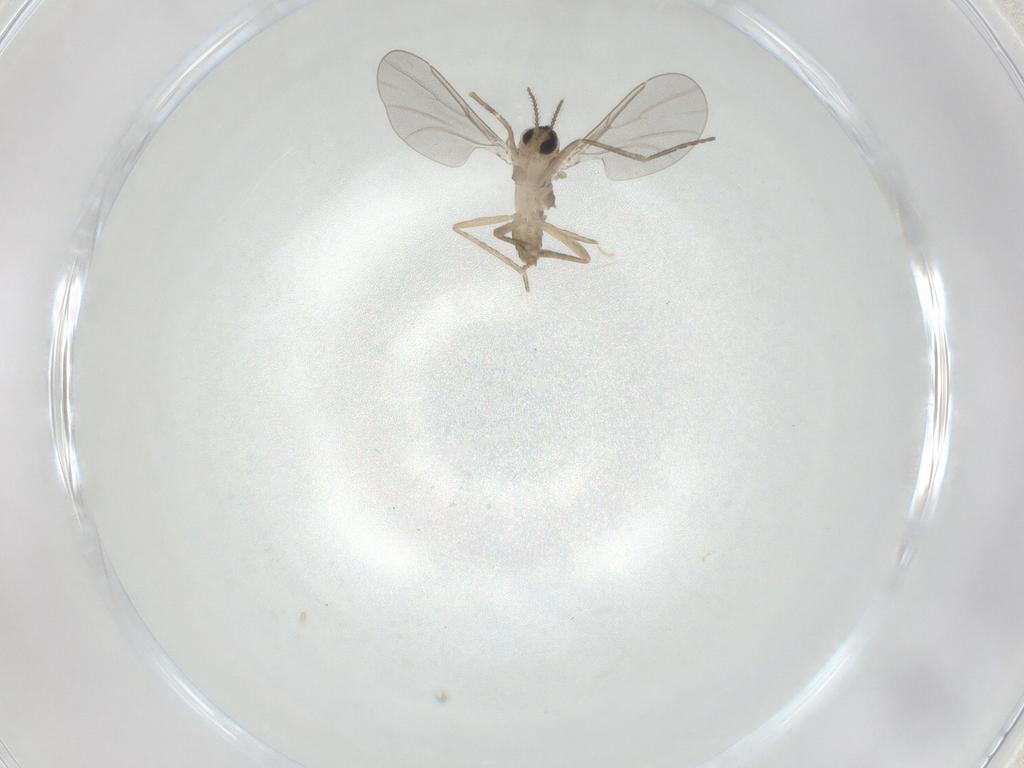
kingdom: Animalia
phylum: Arthropoda
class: Insecta
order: Diptera
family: Cecidomyiidae
